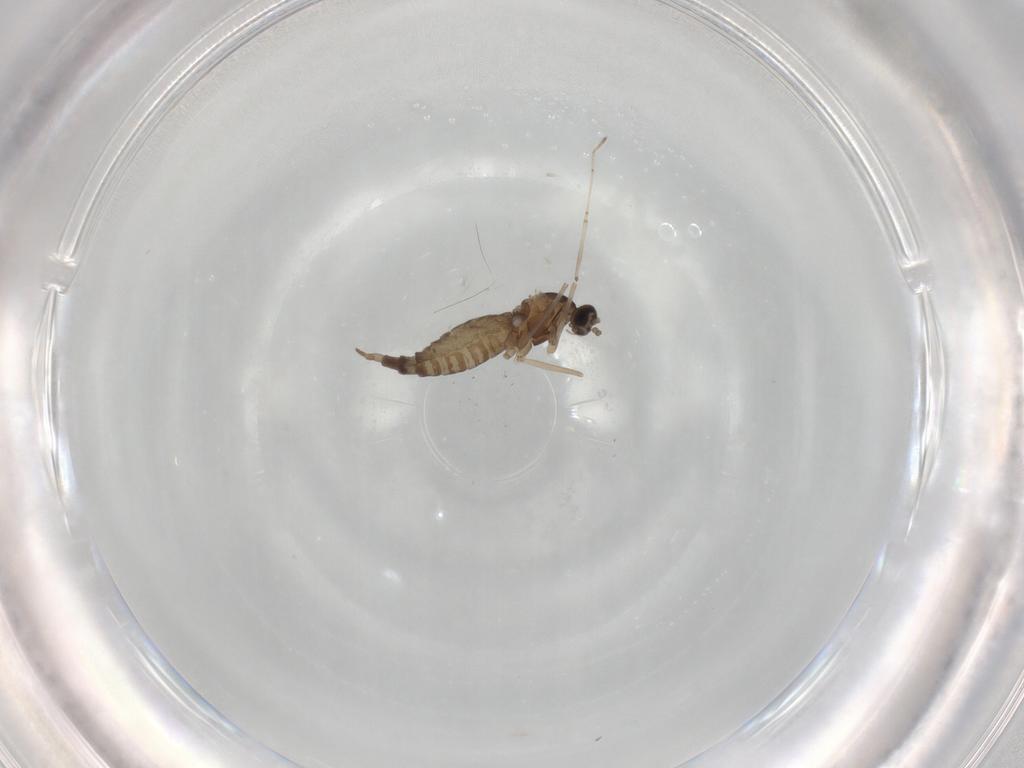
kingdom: Animalia
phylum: Arthropoda
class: Insecta
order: Diptera
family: Cecidomyiidae
